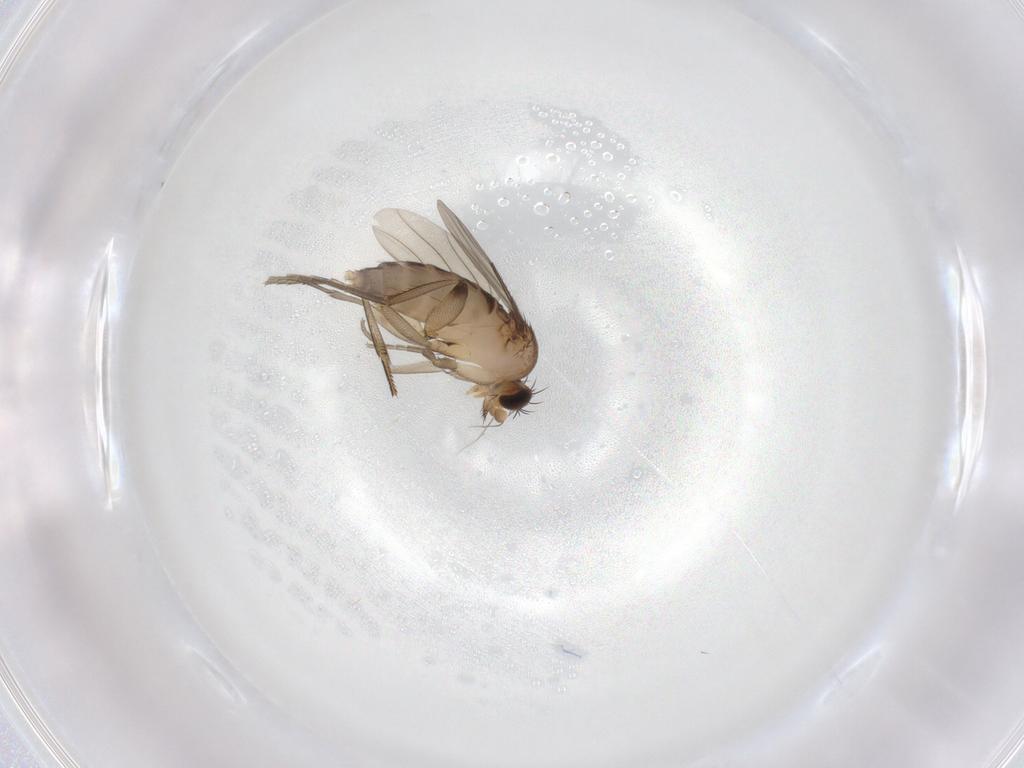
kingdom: Animalia
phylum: Arthropoda
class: Insecta
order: Diptera
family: Phoridae
